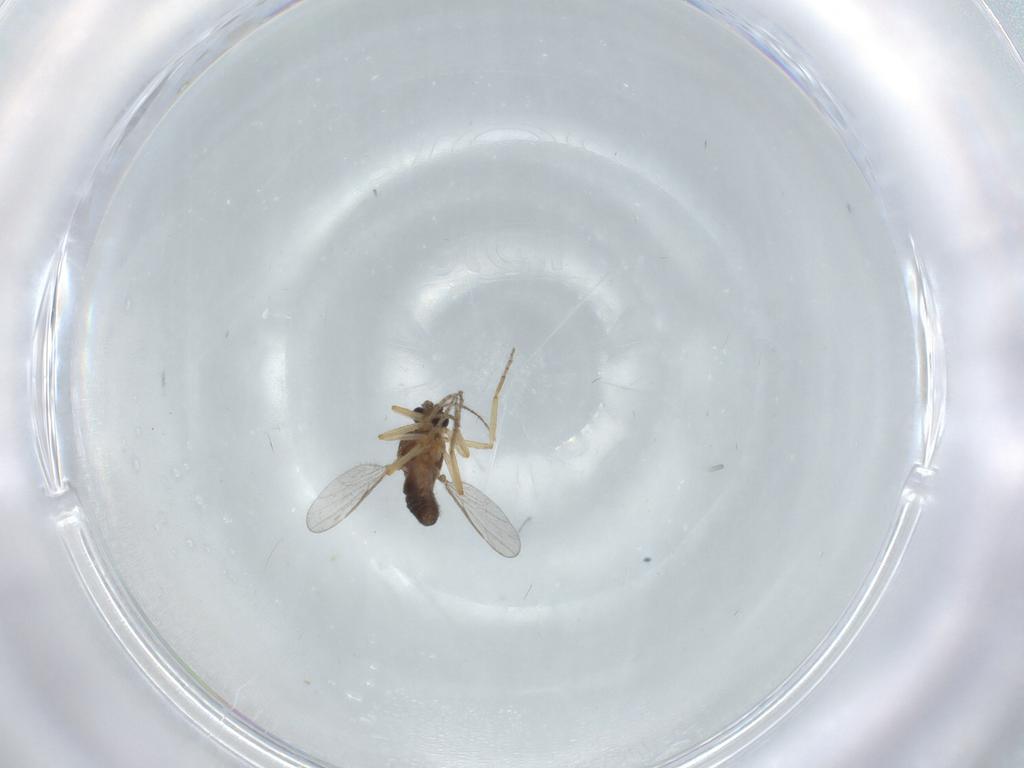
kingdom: Animalia
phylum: Arthropoda
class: Insecta
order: Diptera
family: Ceratopogonidae
